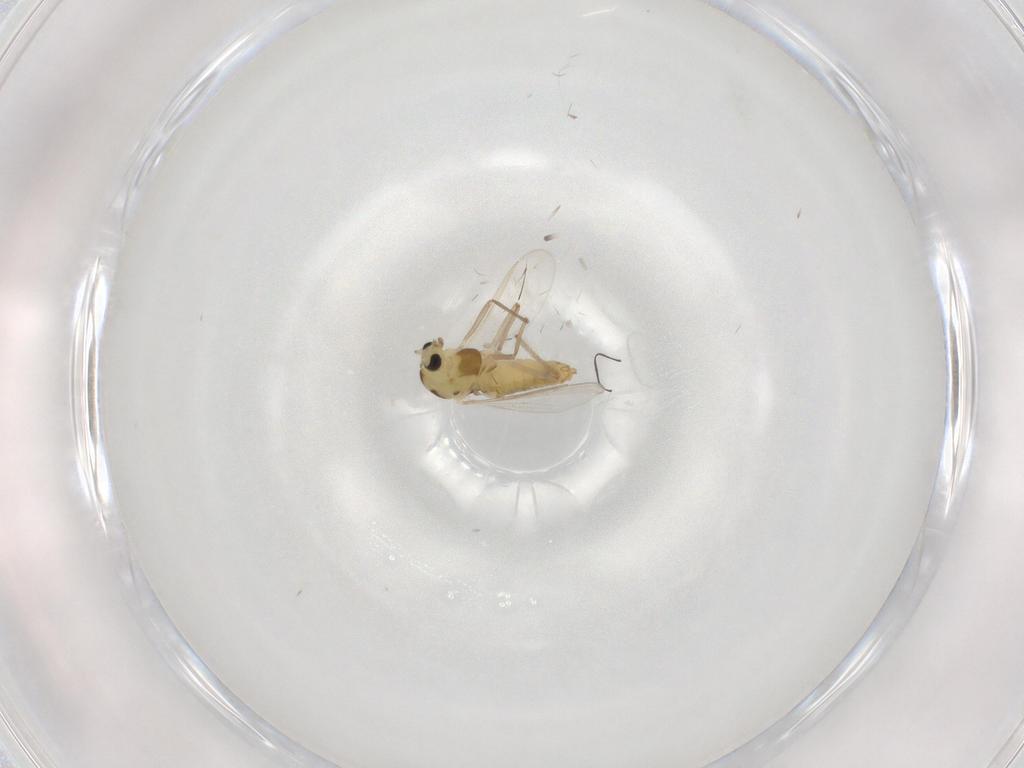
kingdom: Animalia
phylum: Arthropoda
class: Insecta
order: Diptera
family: Chironomidae
